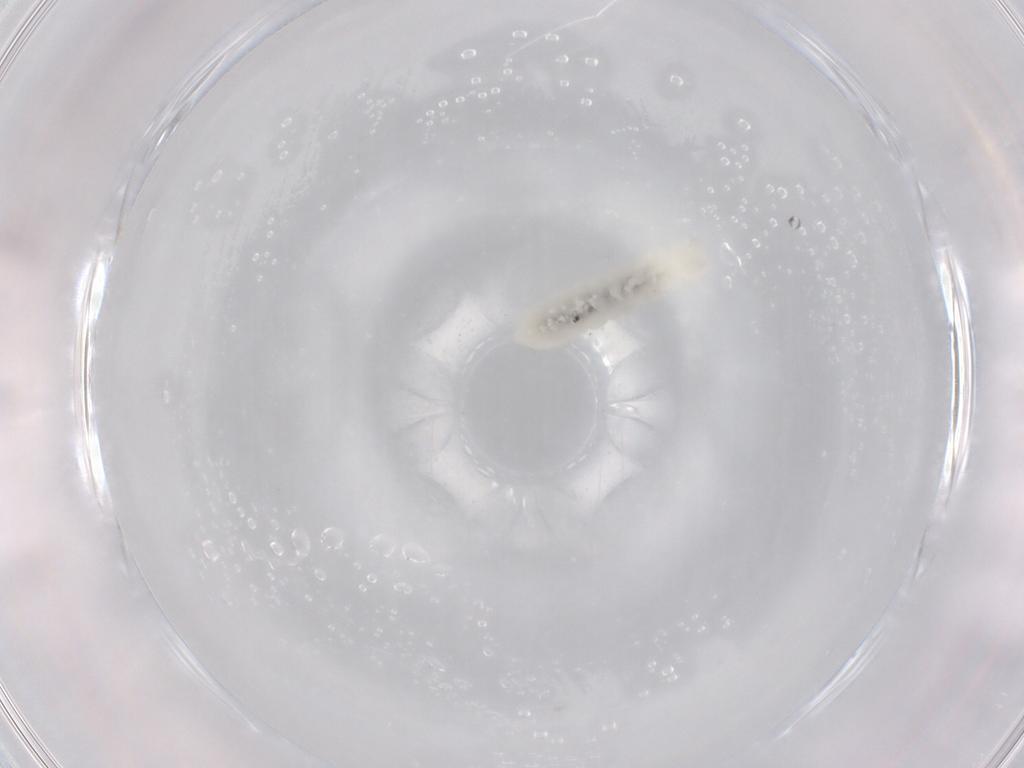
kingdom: Animalia
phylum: Arthropoda
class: Collembola
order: Poduromorpha
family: Onychiuridae
